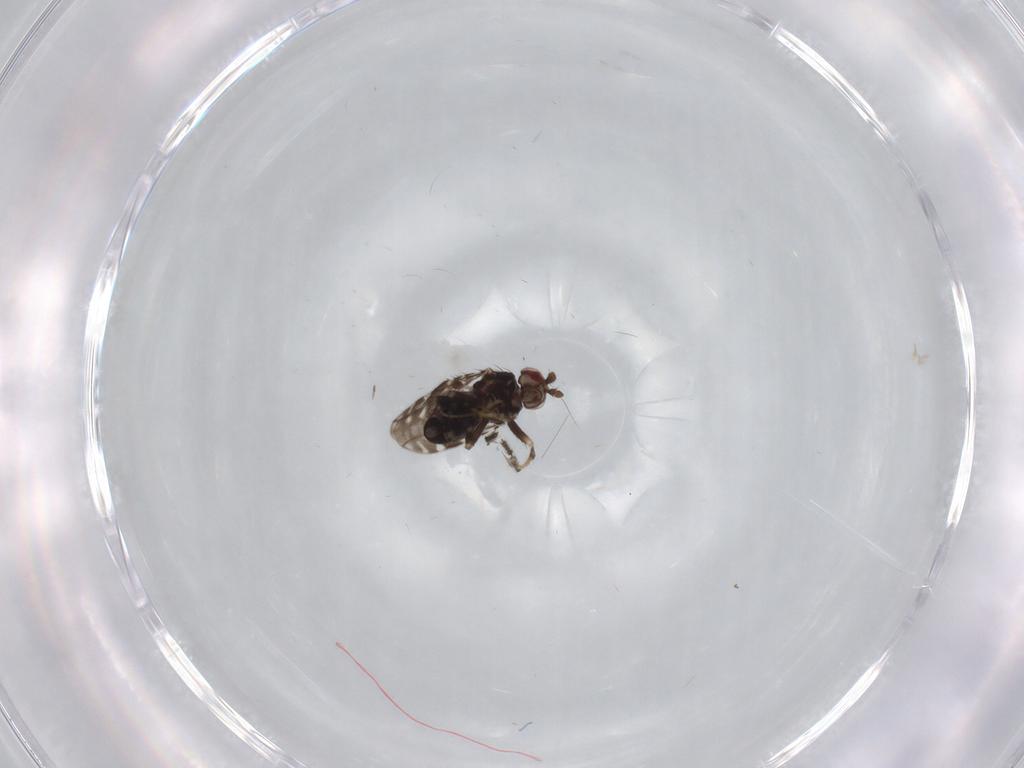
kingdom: Animalia
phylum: Arthropoda
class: Insecta
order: Diptera
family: Sphaeroceridae
